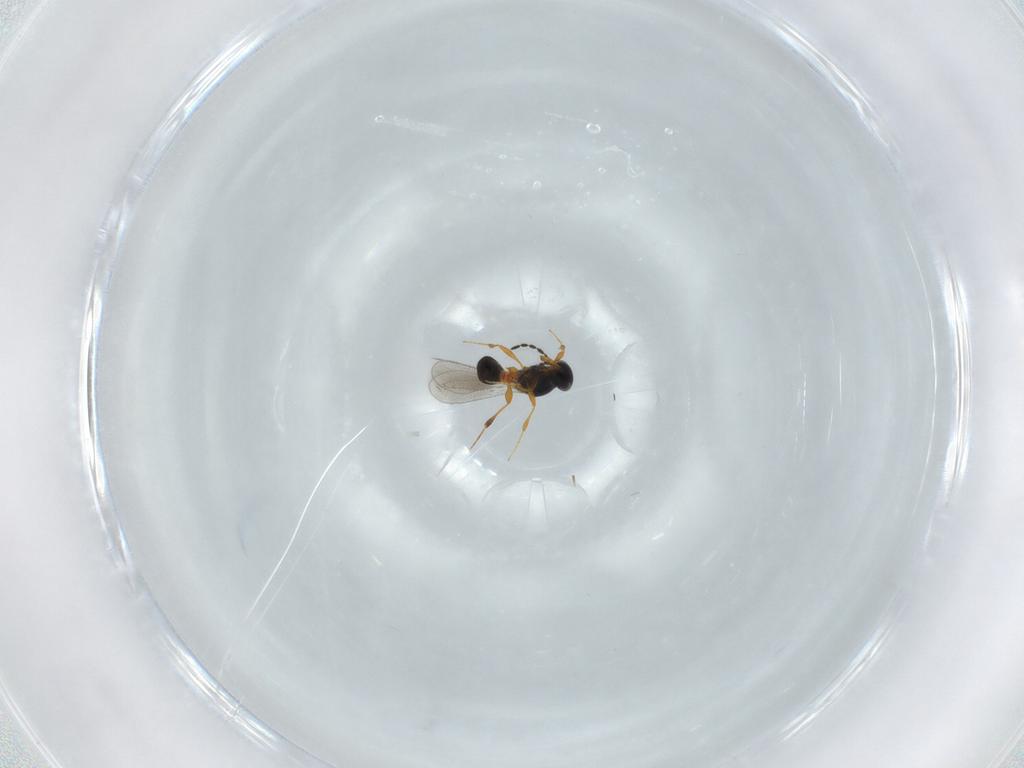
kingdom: Animalia
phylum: Arthropoda
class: Insecta
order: Hymenoptera
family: Platygastridae
